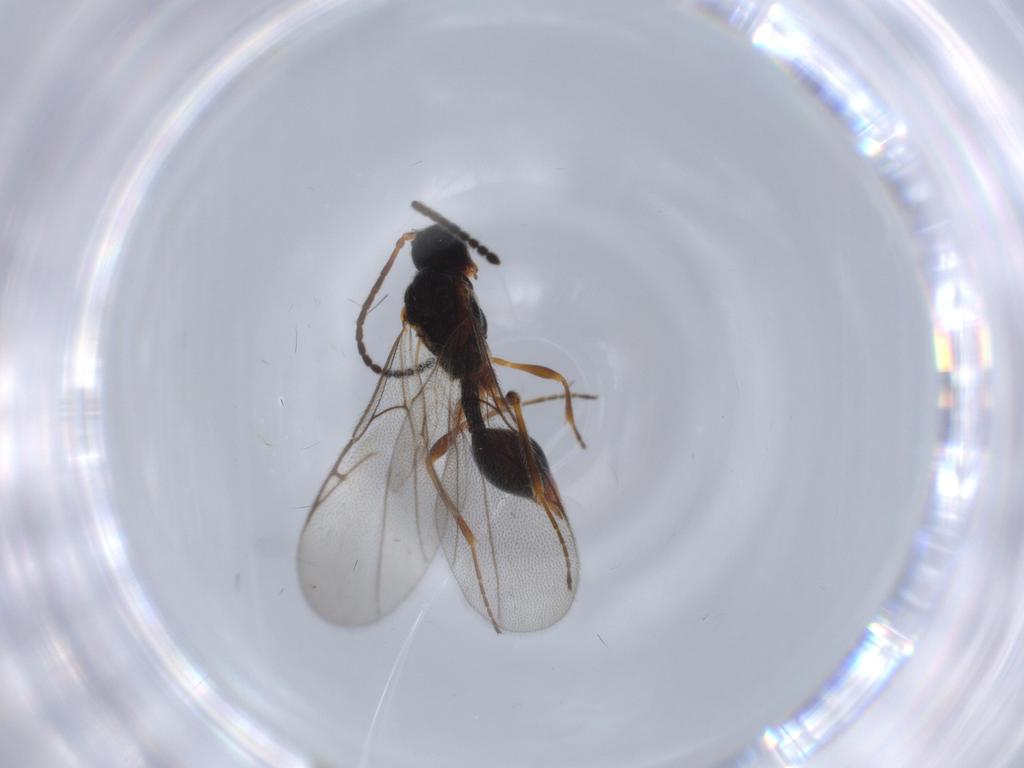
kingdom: Animalia
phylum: Arthropoda
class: Insecta
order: Hymenoptera
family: Diapriidae
